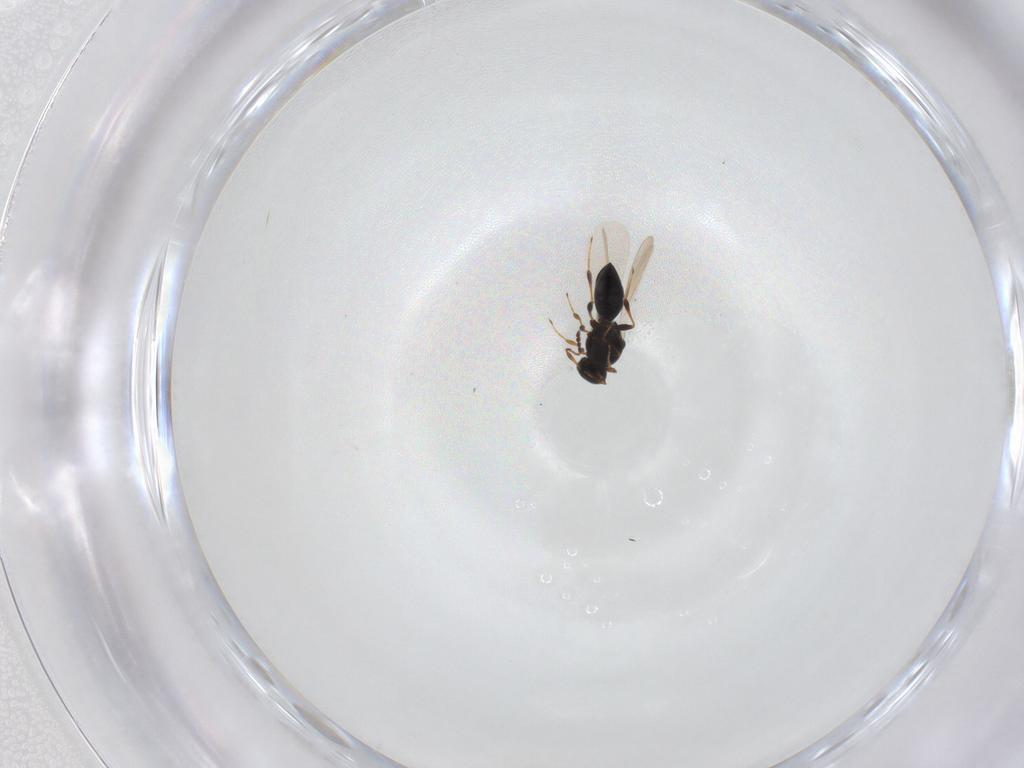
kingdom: Animalia
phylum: Arthropoda
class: Insecta
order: Hymenoptera
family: Platygastridae
